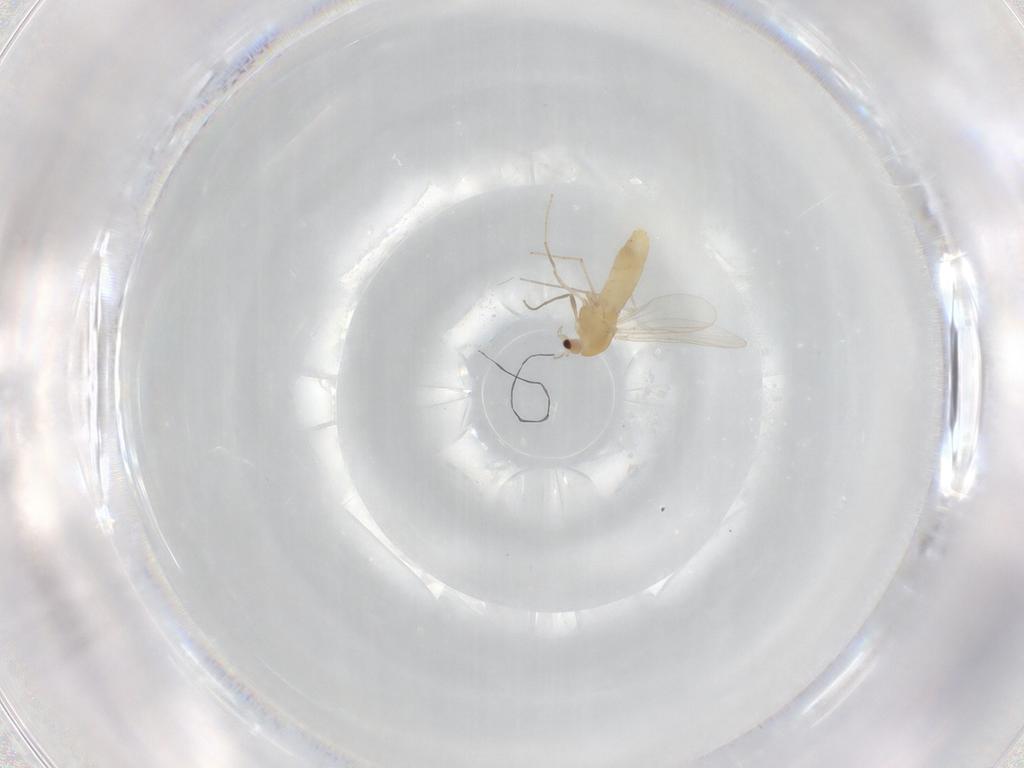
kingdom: Animalia
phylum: Arthropoda
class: Insecta
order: Diptera
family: Chironomidae
